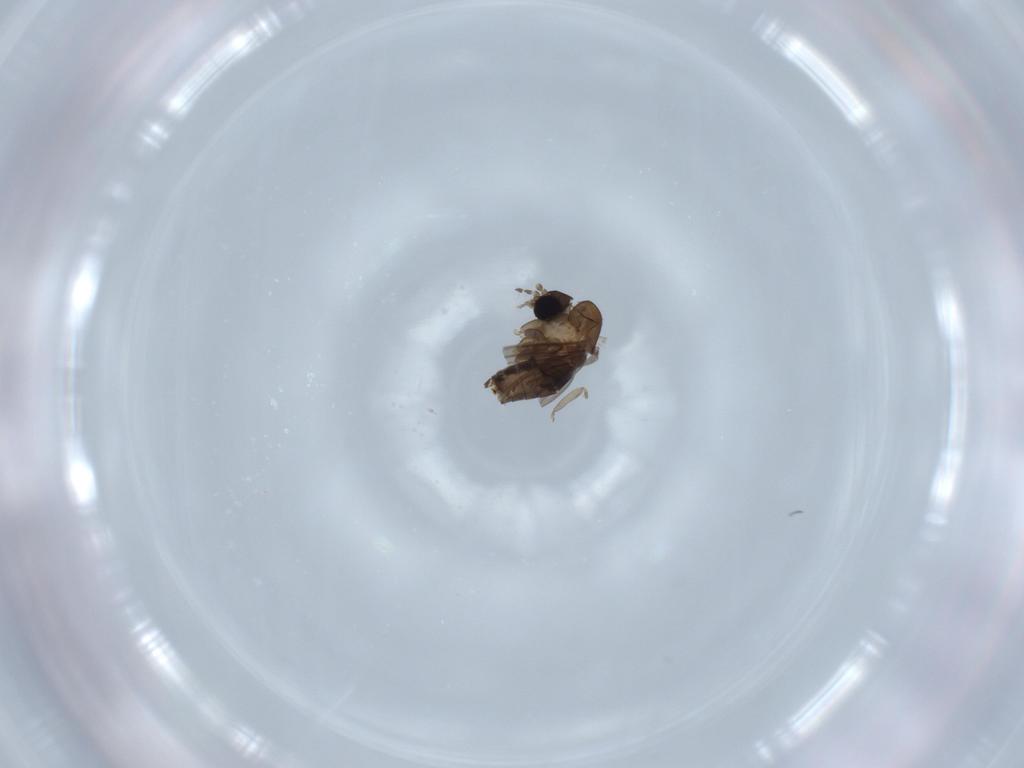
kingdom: Animalia
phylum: Arthropoda
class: Insecta
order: Diptera
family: Psychodidae
